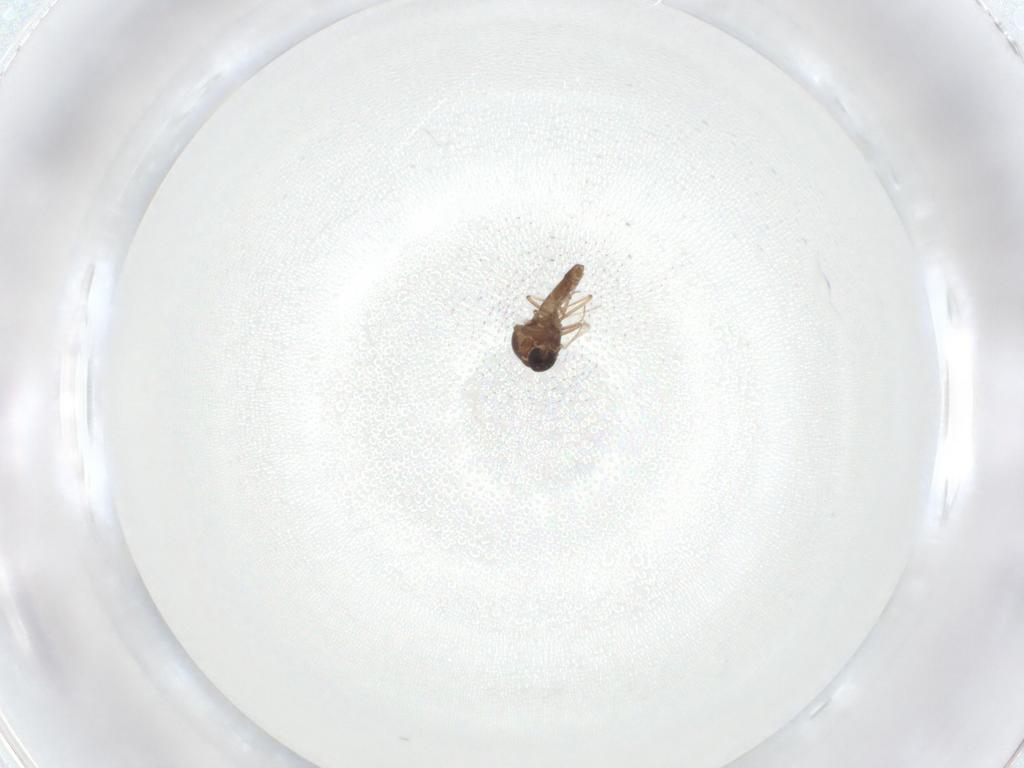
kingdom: Animalia
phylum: Arthropoda
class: Insecta
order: Diptera
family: Ceratopogonidae
